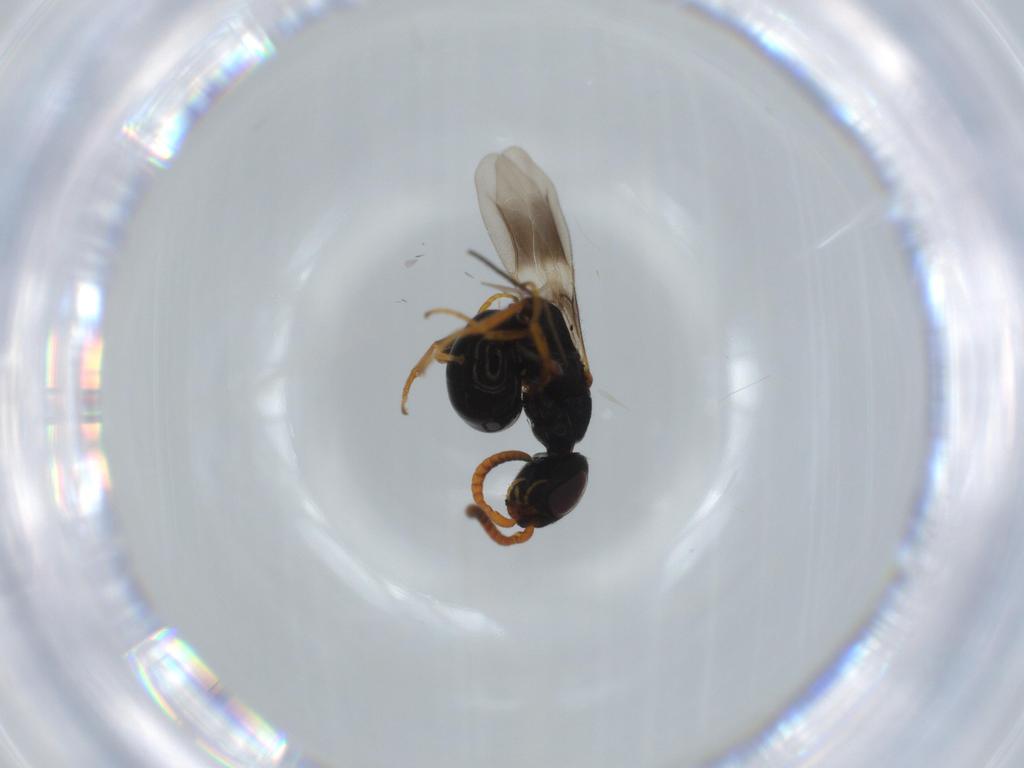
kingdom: Animalia
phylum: Arthropoda
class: Insecta
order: Hymenoptera
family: Bethylidae
